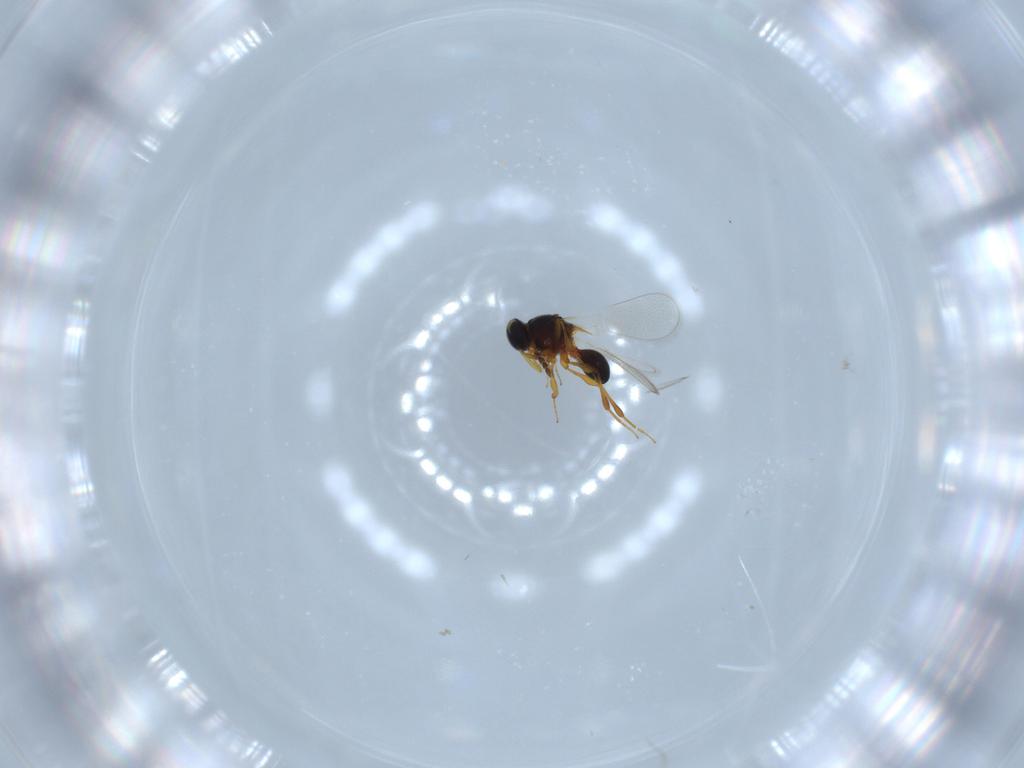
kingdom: Animalia
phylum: Arthropoda
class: Insecta
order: Hymenoptera
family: Platygastridae
